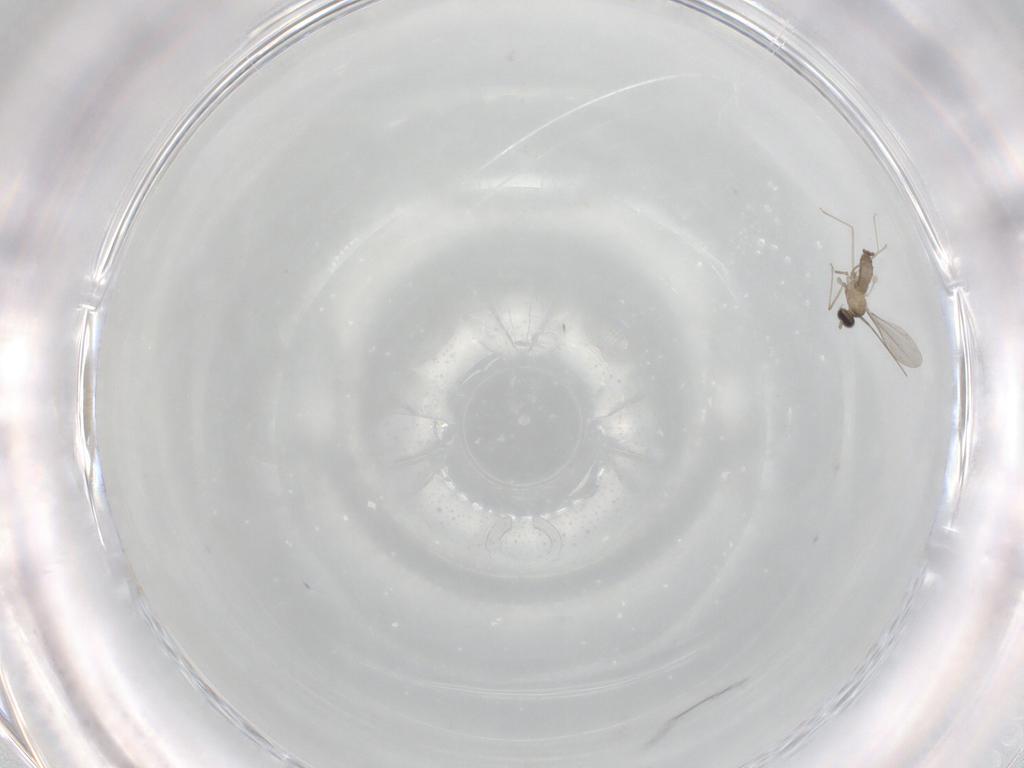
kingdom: Animalia
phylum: Arthropoda
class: Insecta
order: Diptera
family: Cecidomyiidae
